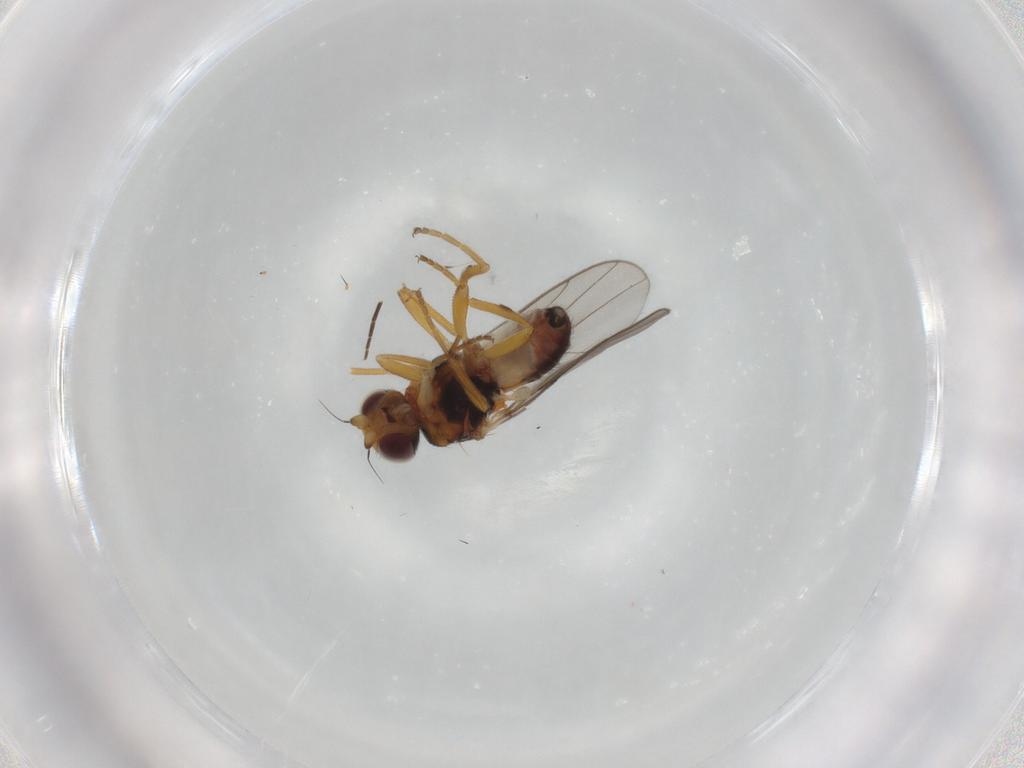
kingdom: Animalia
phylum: Arthropoda
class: Insecta
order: Diptera
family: Chloropidae
